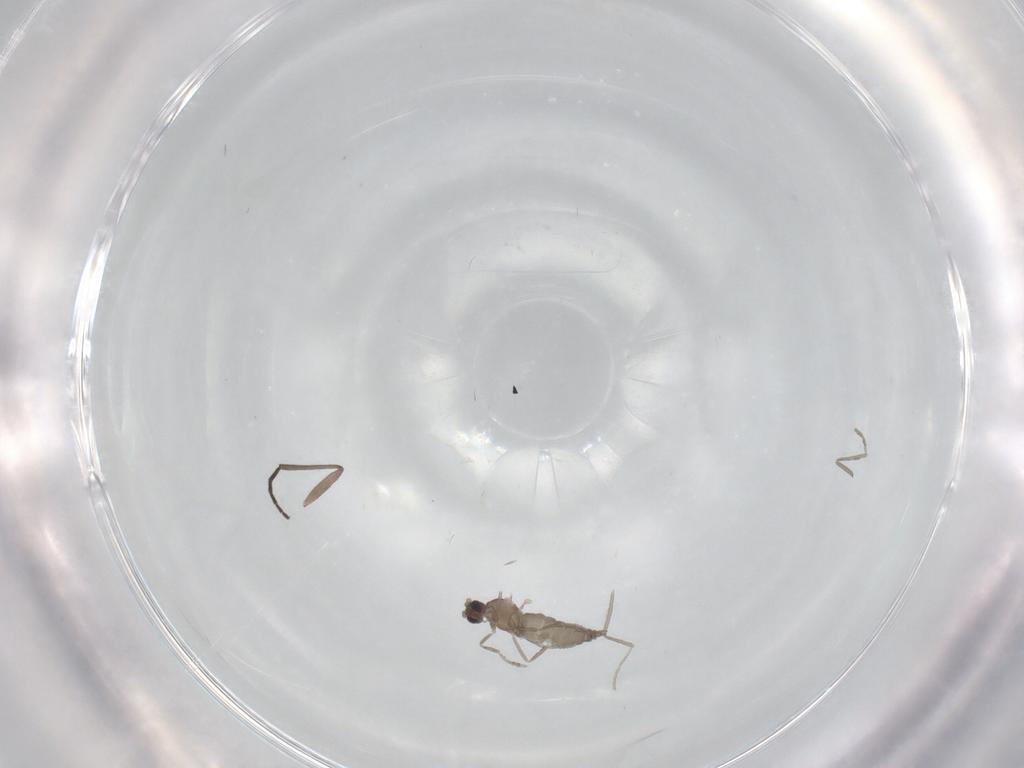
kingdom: Animalia
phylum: Arthropoda
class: Insecta
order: Diptera
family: Sciaridae
